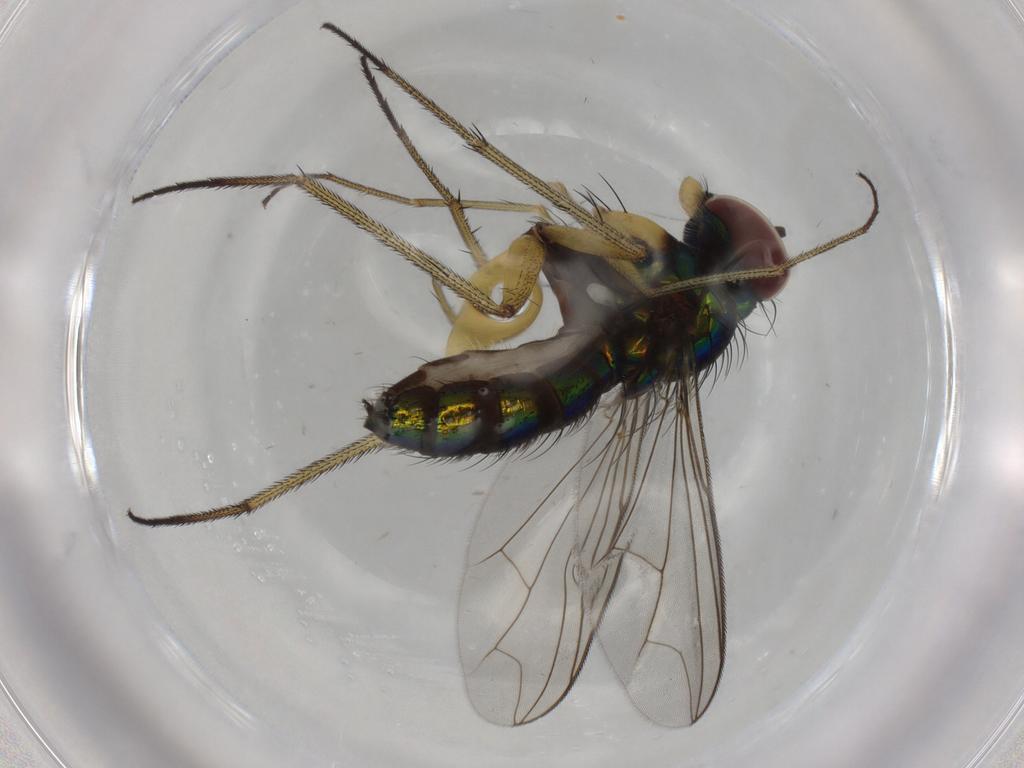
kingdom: Animalia
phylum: Arthropoda
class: Insecta
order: Diptera
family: Dolichopodidae
